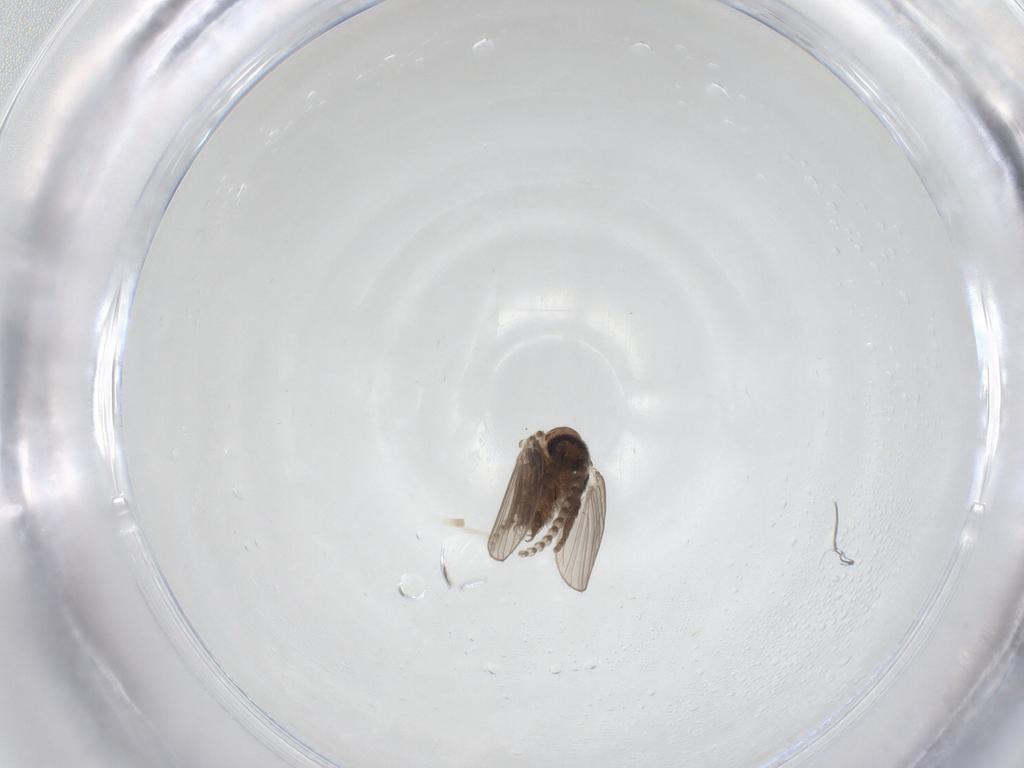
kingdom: Animalia
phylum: Arthropoda
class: Insecta
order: Diptera
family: Psychodidae
